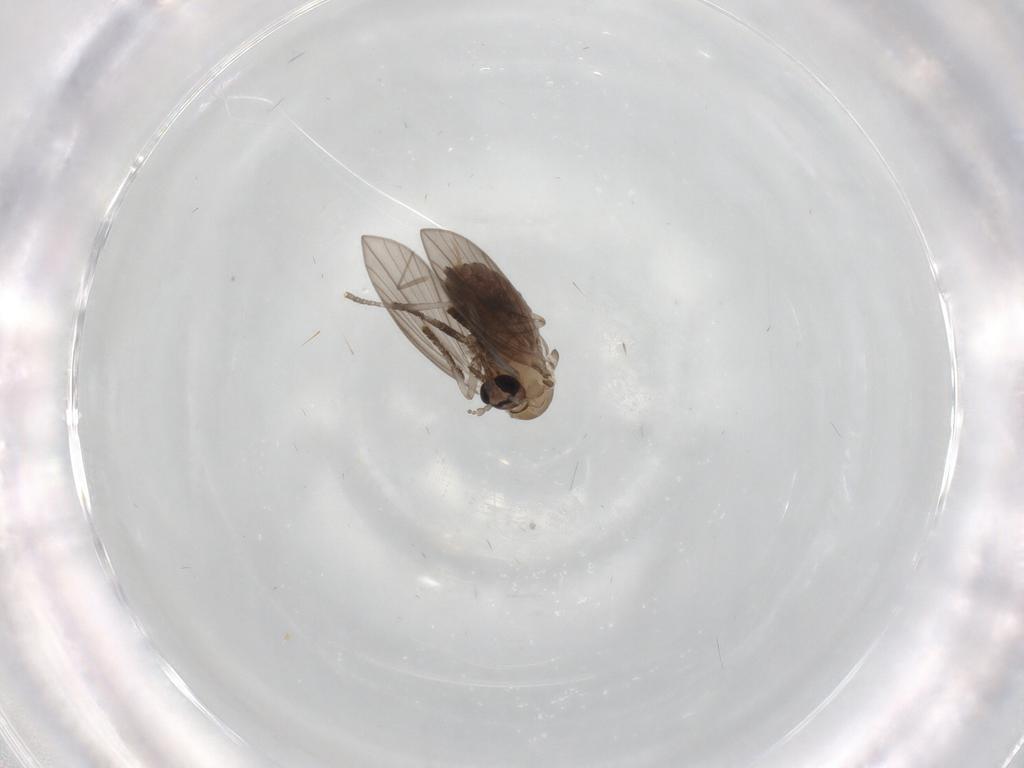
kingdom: Animalia
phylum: Arthropoda
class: Insecta
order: Diptera
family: Psychodidae
